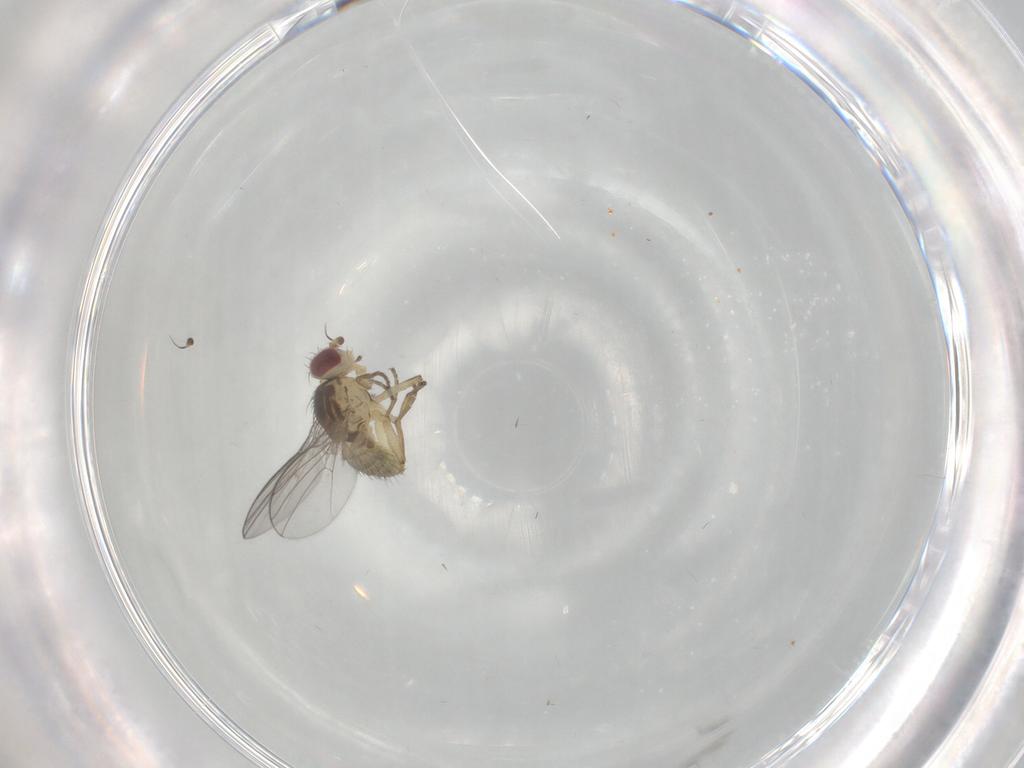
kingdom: Animalia
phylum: Arthropoda
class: Insecta
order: Diptera
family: Agromyzidae
